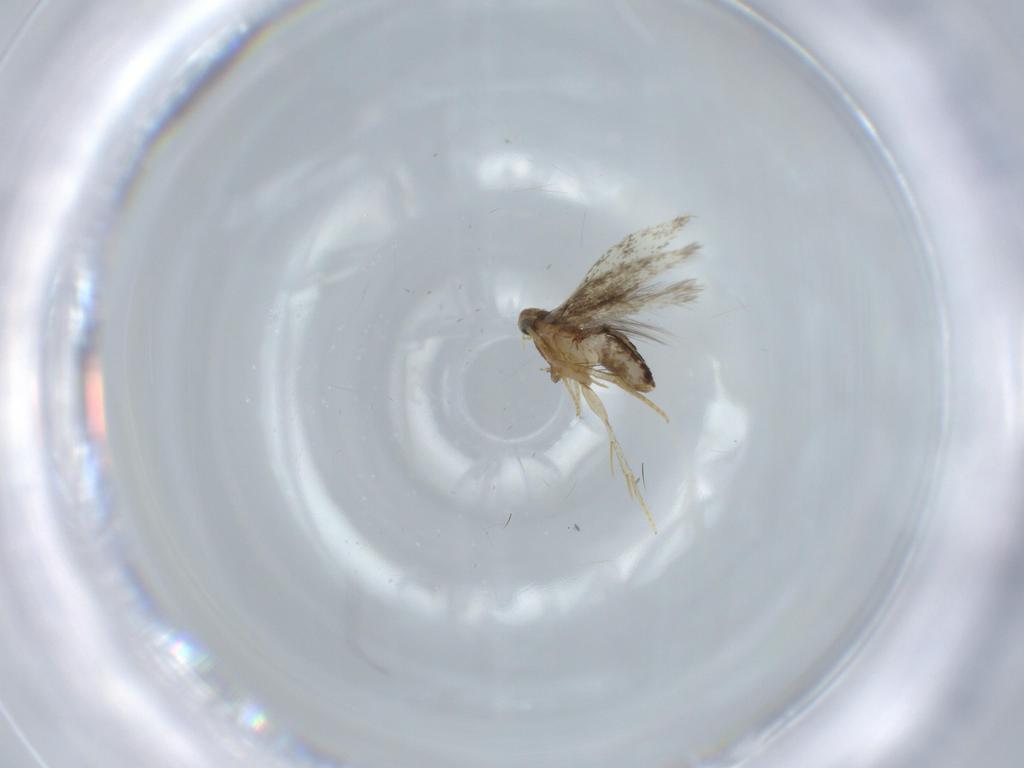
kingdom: Animalia
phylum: Arthropoda
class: Insecta
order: Lepidoptera
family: Nepticulidae
